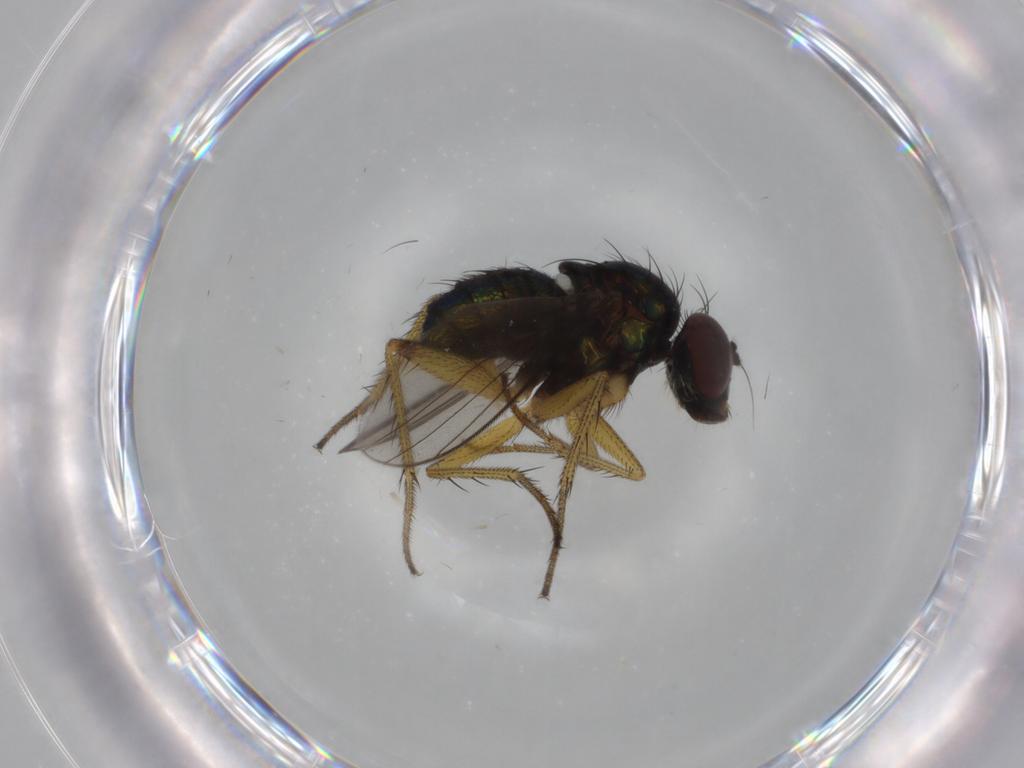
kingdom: Animalia
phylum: Arthropoda
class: Insecta
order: Diptera
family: Dolichopodidae
